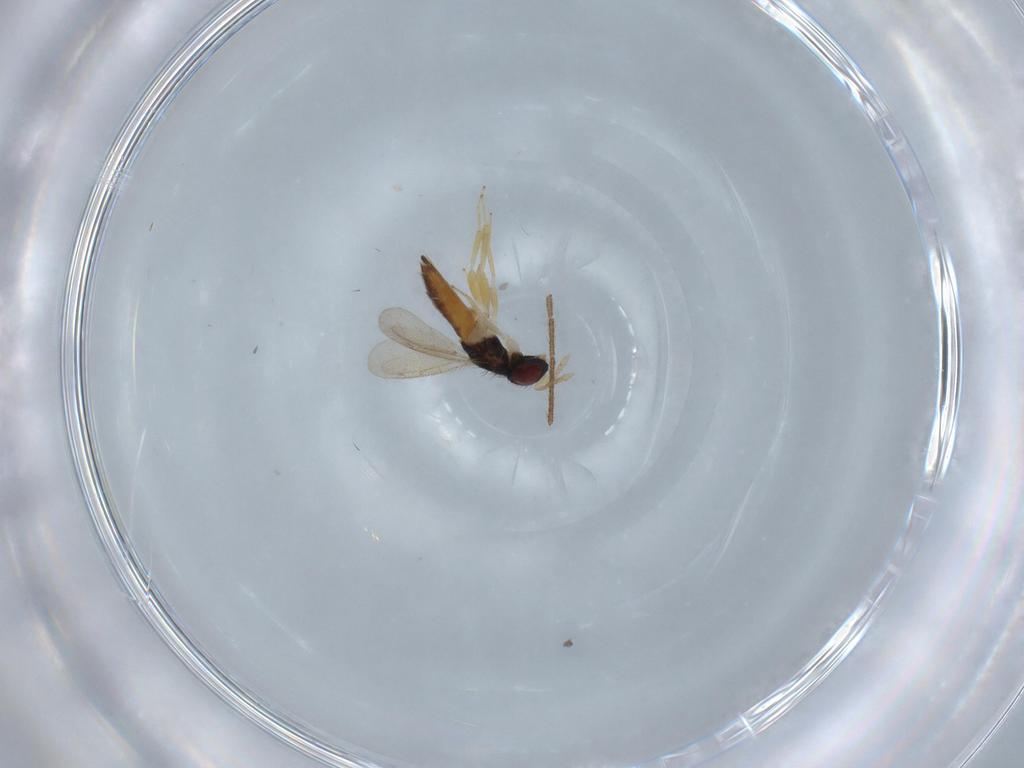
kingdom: Animalia
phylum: Arthropoda
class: Insecta
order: Hymenoptera
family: Eulophidae
